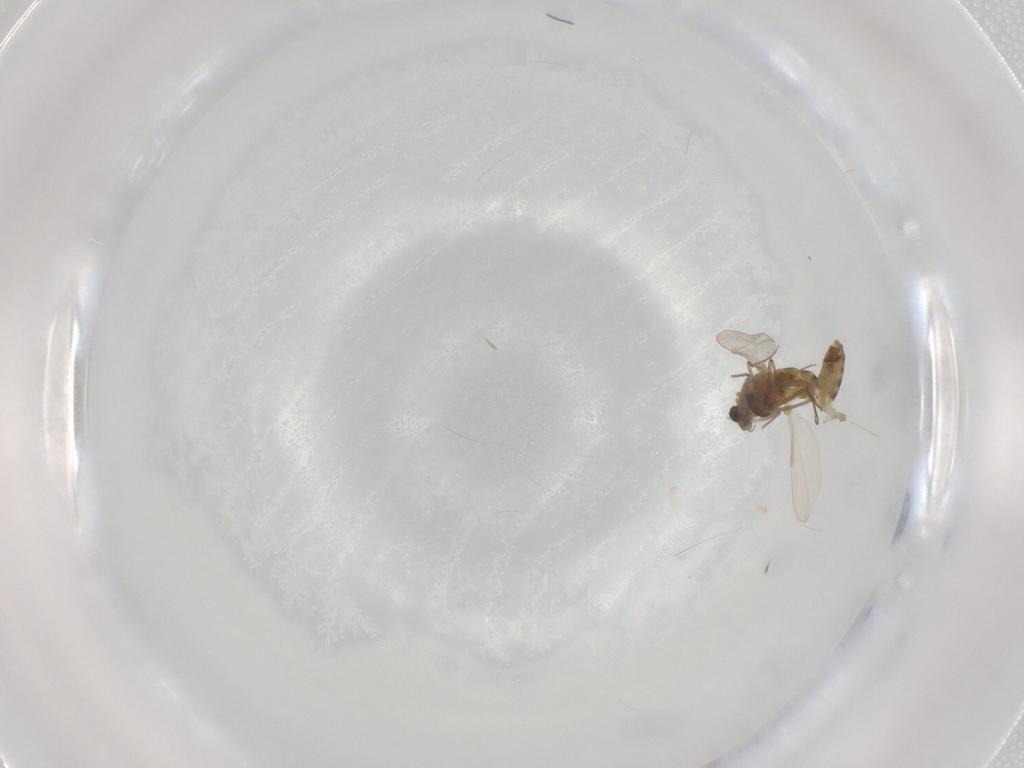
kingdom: Animalia
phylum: Arthropoda
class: Insecta
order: Diptera
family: Chironomidae
